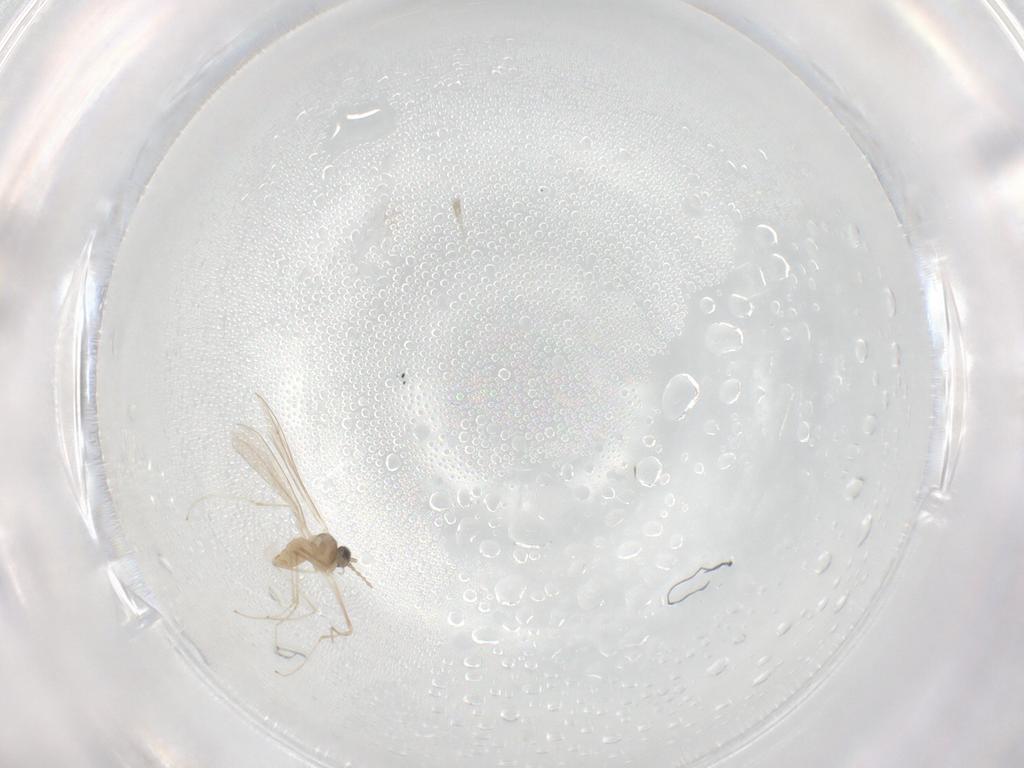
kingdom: Animalia
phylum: Arthropoda
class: Insecta
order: Diptera
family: Cecidomyiidae
